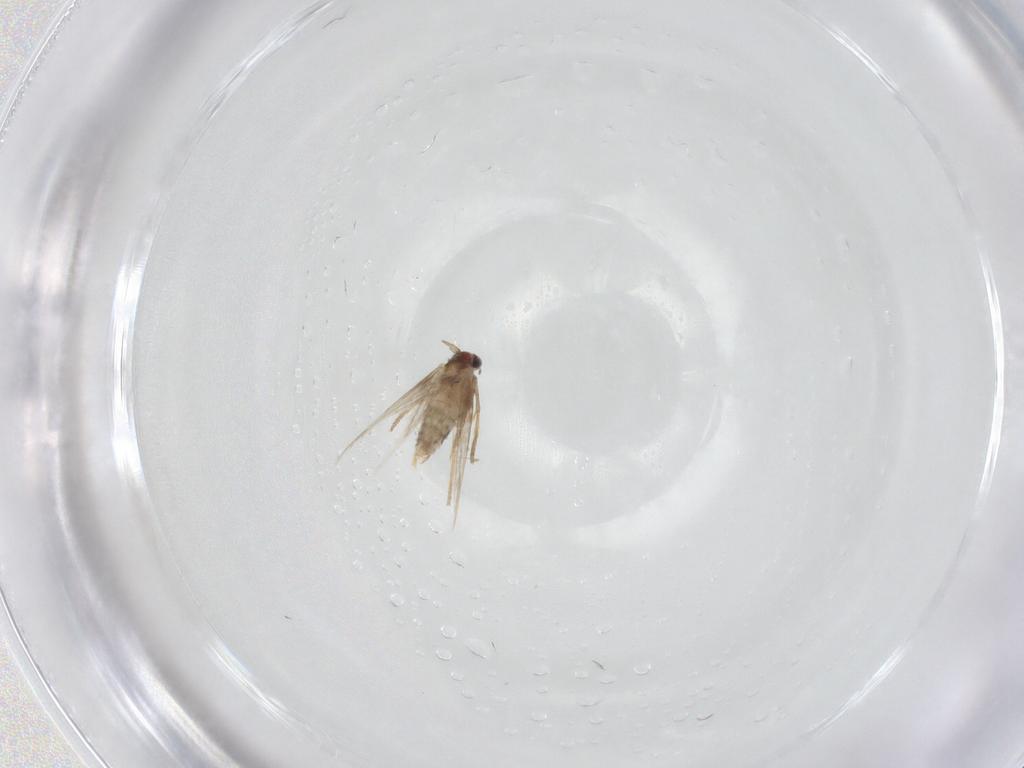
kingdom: Animalia
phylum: Arthropoda
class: Insecta
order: Lepidoptera
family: Nepticulidae
